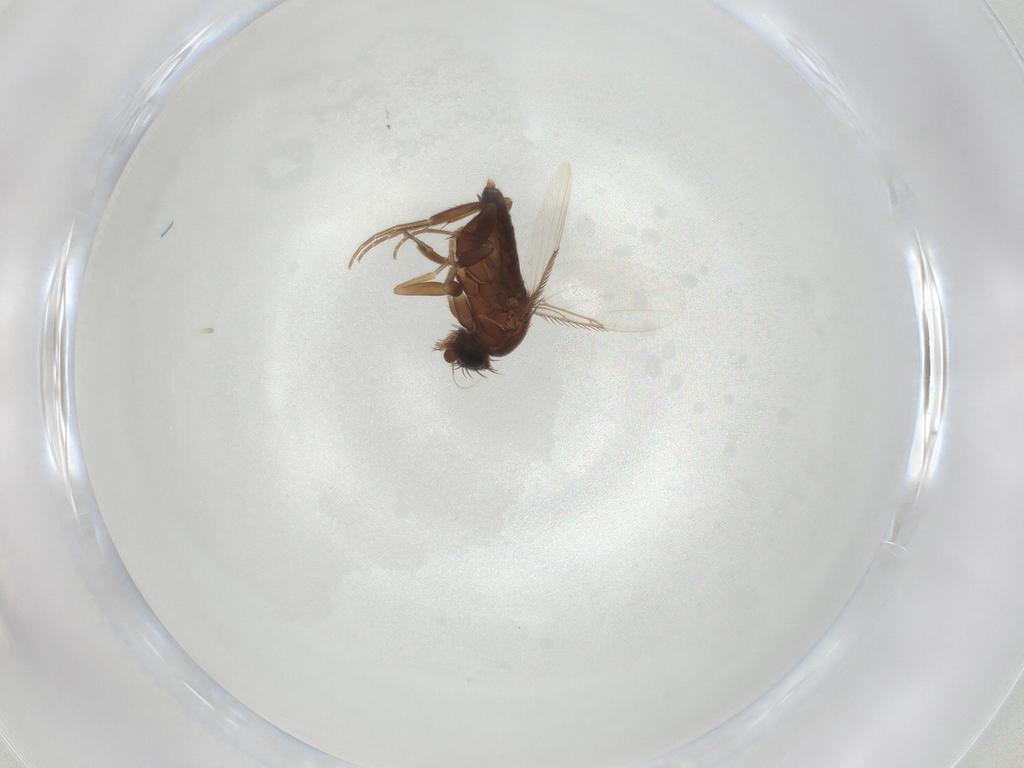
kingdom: Animalia
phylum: Arthropoda
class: Insecta
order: Diptera
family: Phoridae
